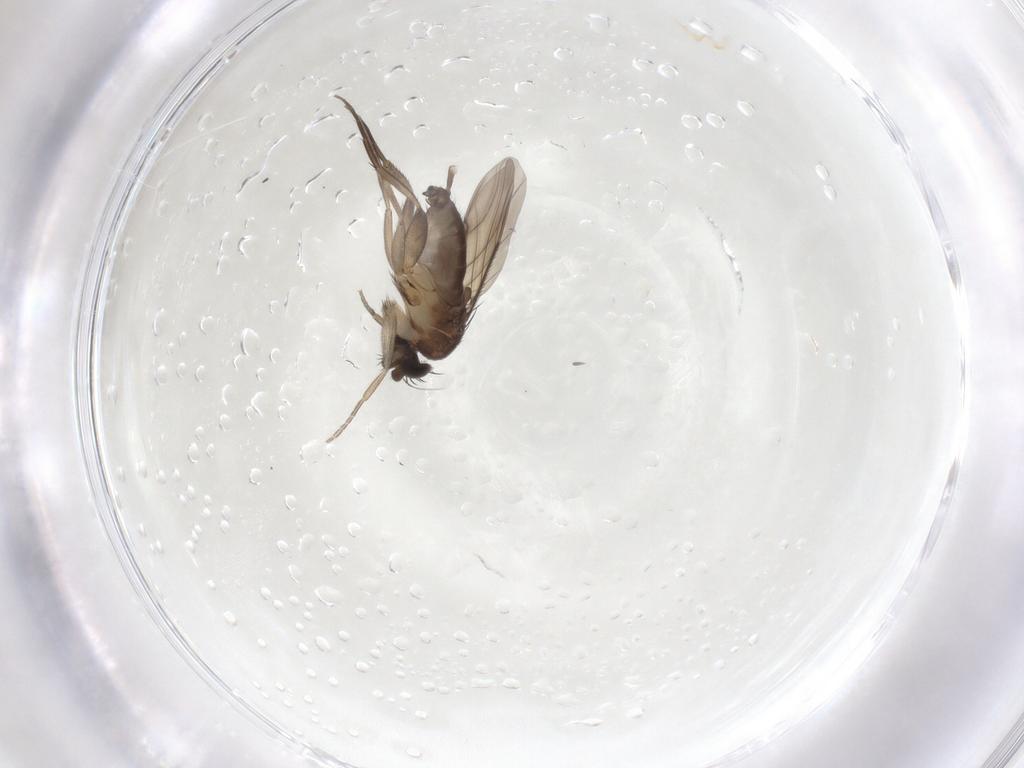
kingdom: Animalia
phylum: Arthropoda
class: Insecta
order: Diptera
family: Phoridae
